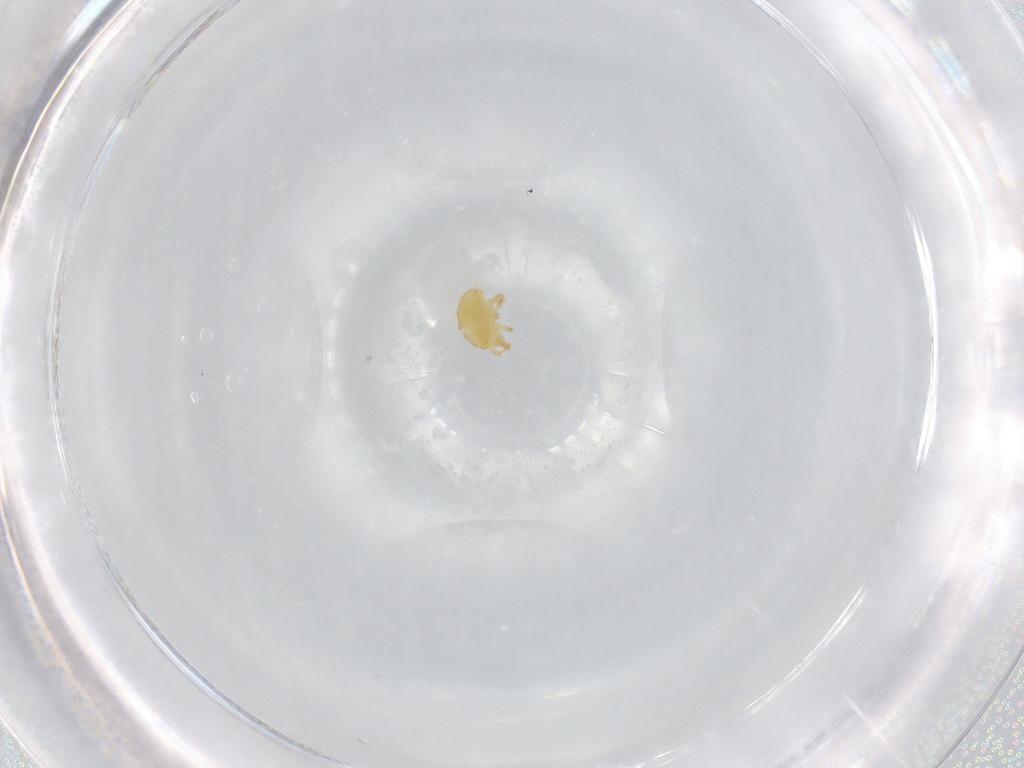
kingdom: Animalia
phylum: Arthropoda
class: Arachnida
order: Trombidiformes
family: Stigmaeidae
